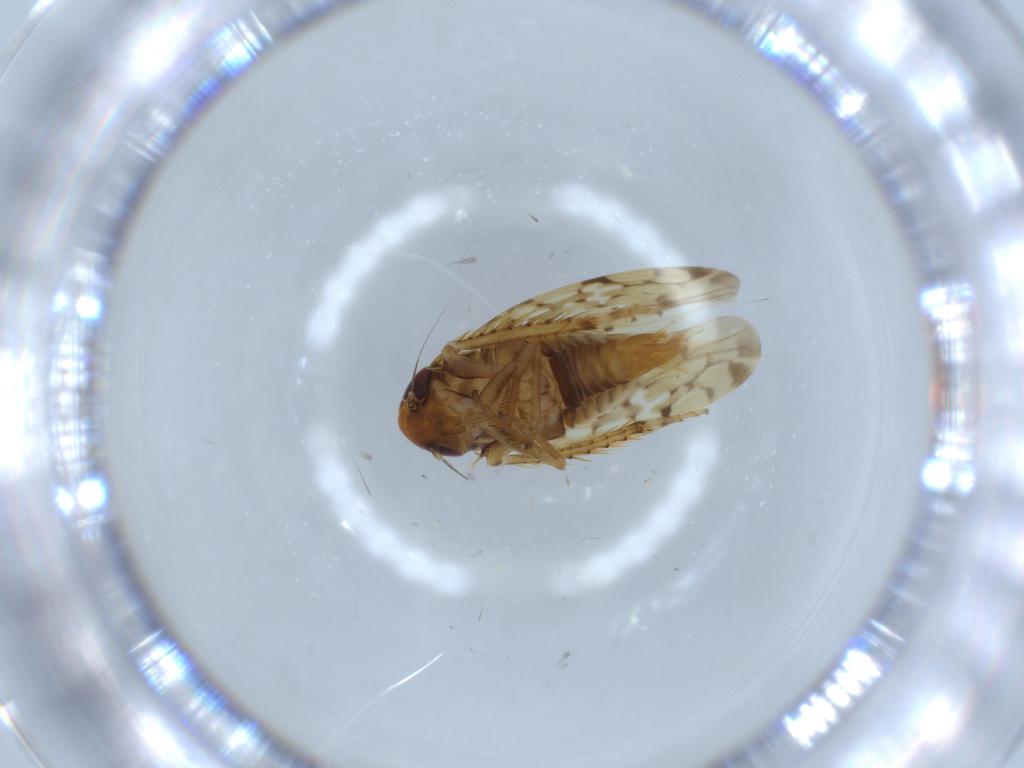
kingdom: Animalia
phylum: Arthropoda
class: Insecta
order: Hemiptera
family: Cicadellidae
